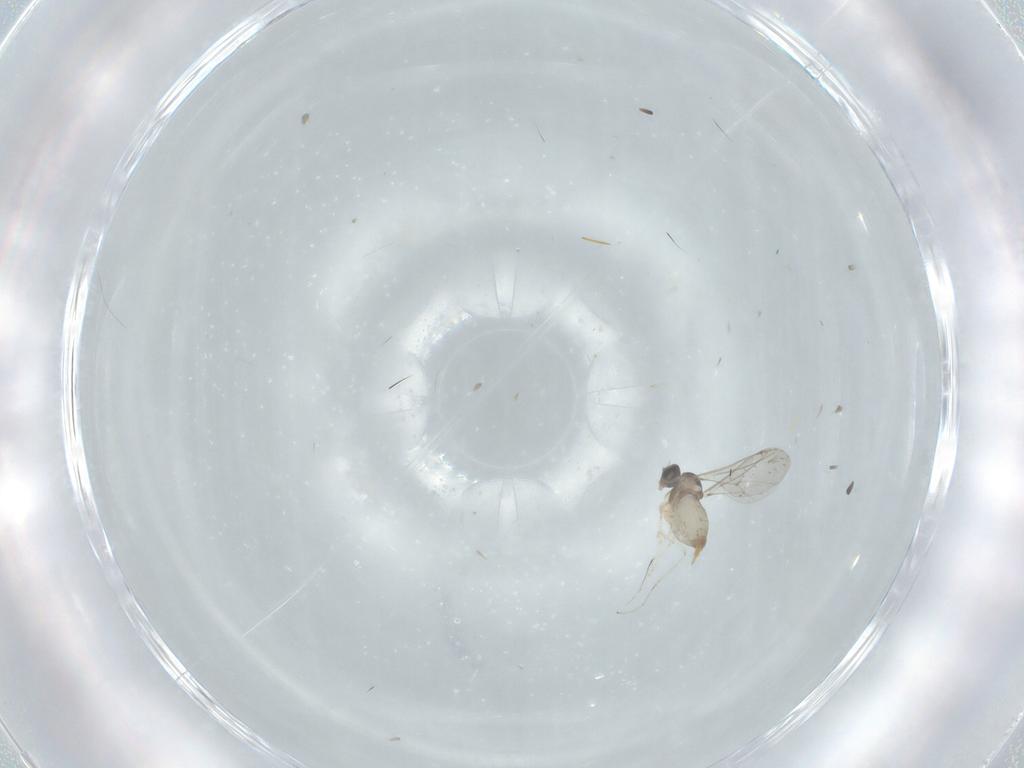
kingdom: Animalia
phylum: Arthropoda
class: Insecta
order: Diptera
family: Cecidomyiidae
